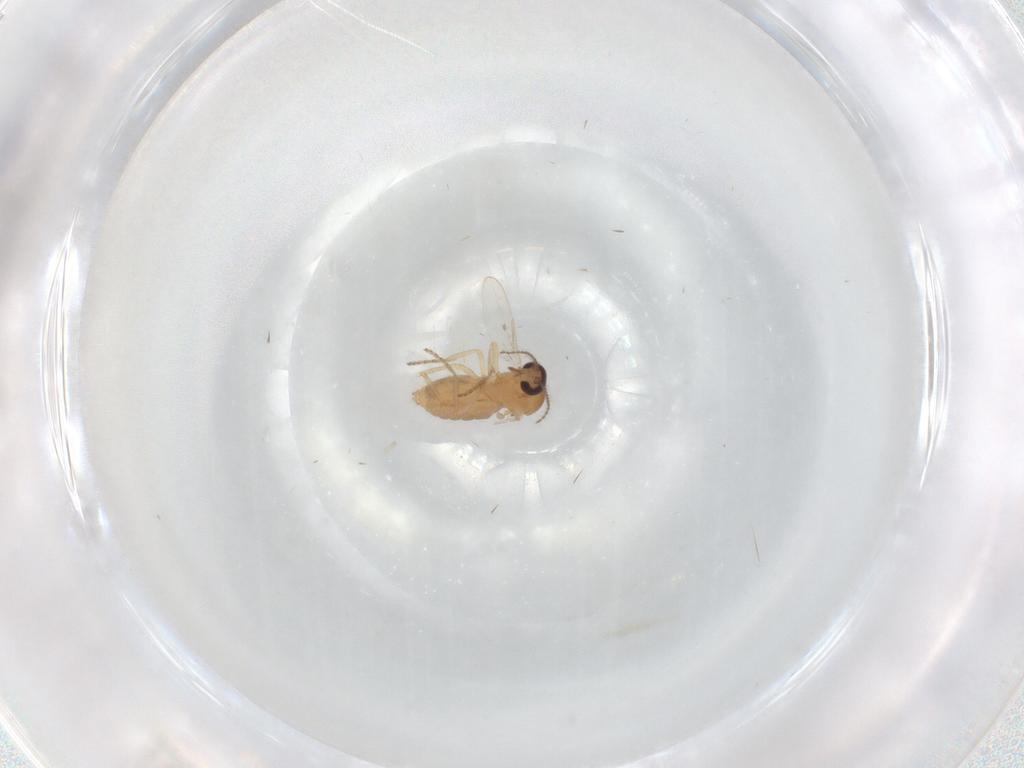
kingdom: Animalia
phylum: Arthropoda
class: Insecta
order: Diptera
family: Ceratopogonidae
